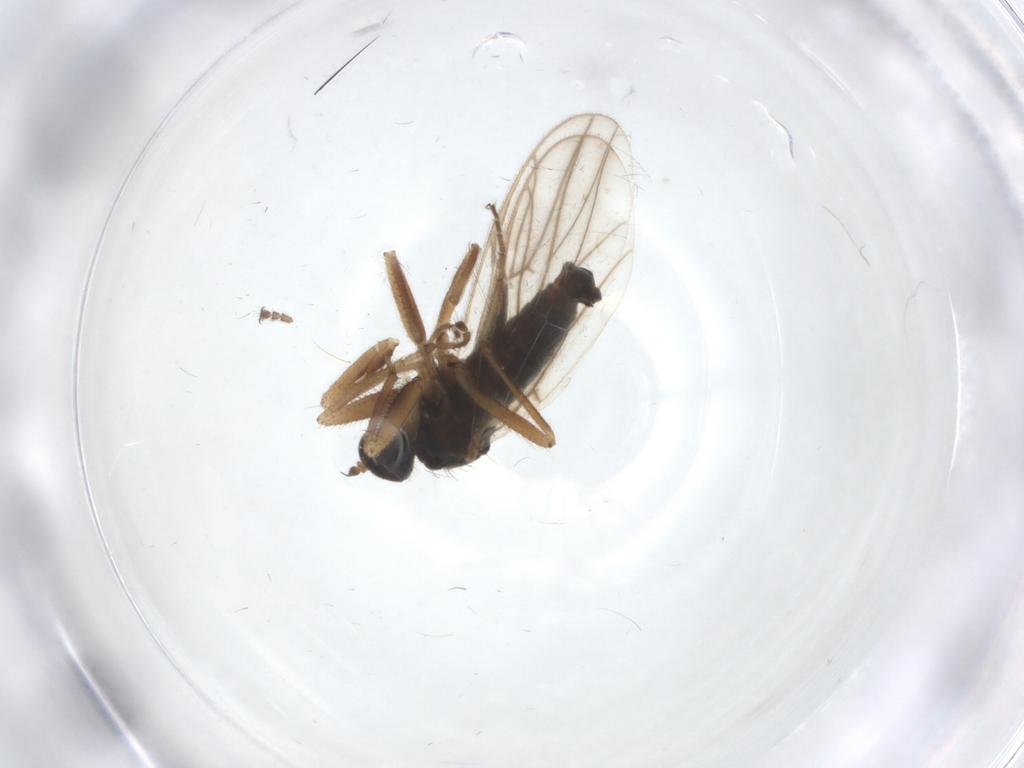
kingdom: Animalia
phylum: Arthropoda
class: Insecta
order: Diptera
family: Hybotidae
